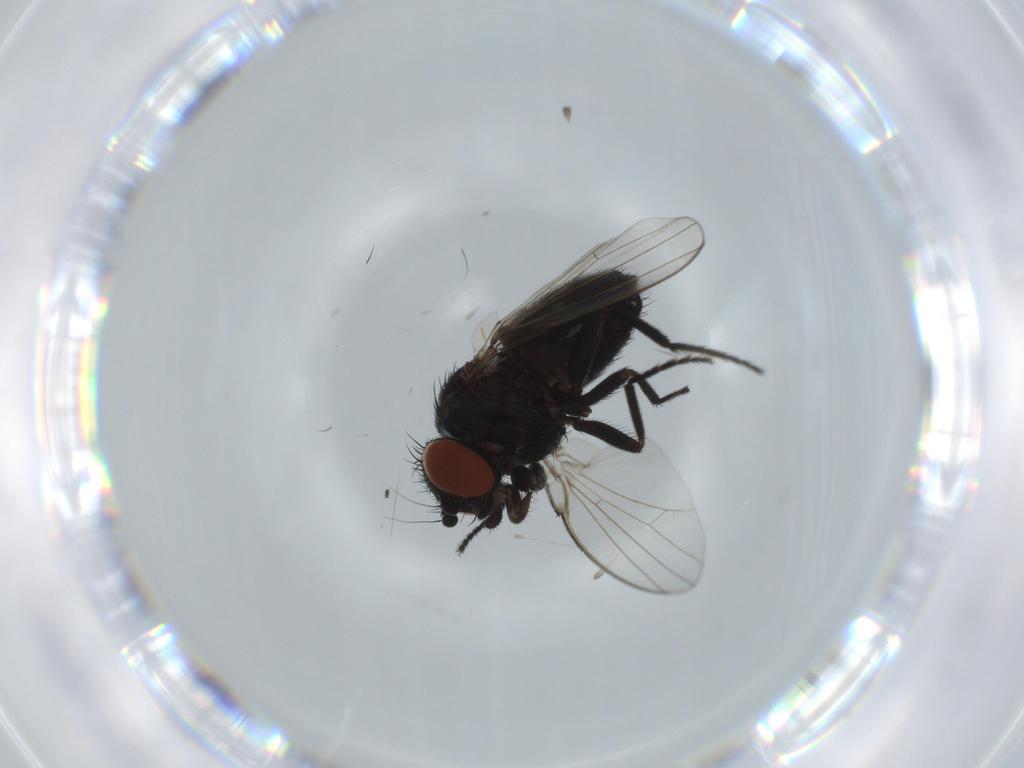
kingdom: Animalia
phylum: Arthropoda
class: Insecta
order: Diptera
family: Milichiidae
